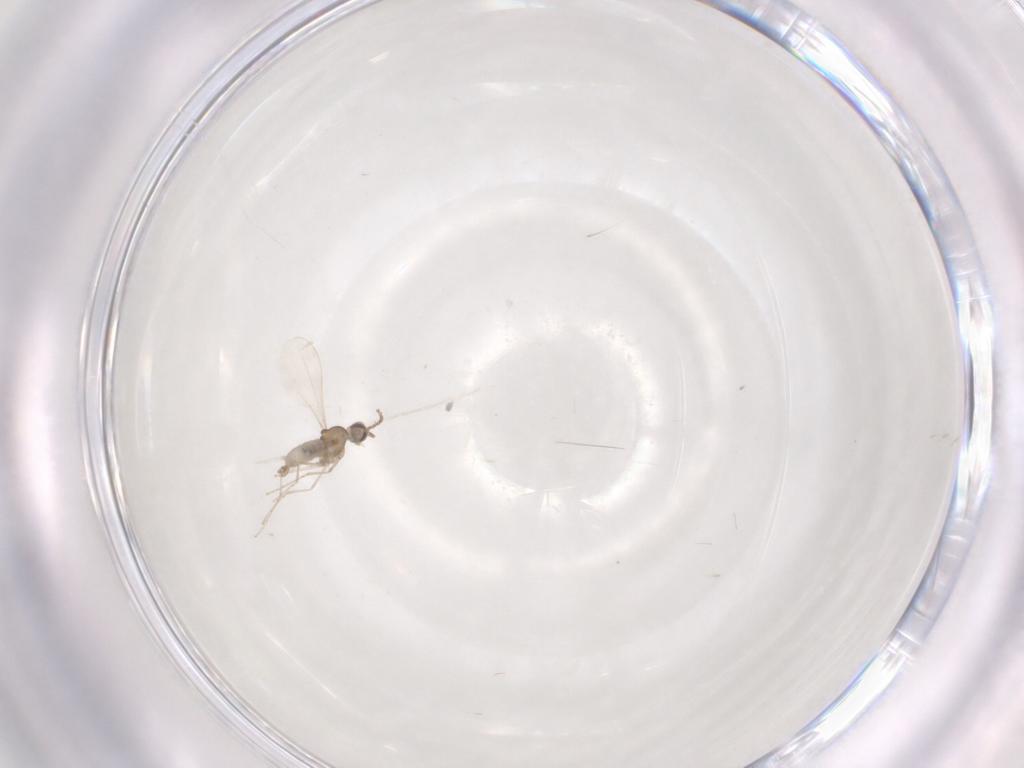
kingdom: Animalia
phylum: Arthropoda
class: Insecta
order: Diptera
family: Cecidomyiidae
